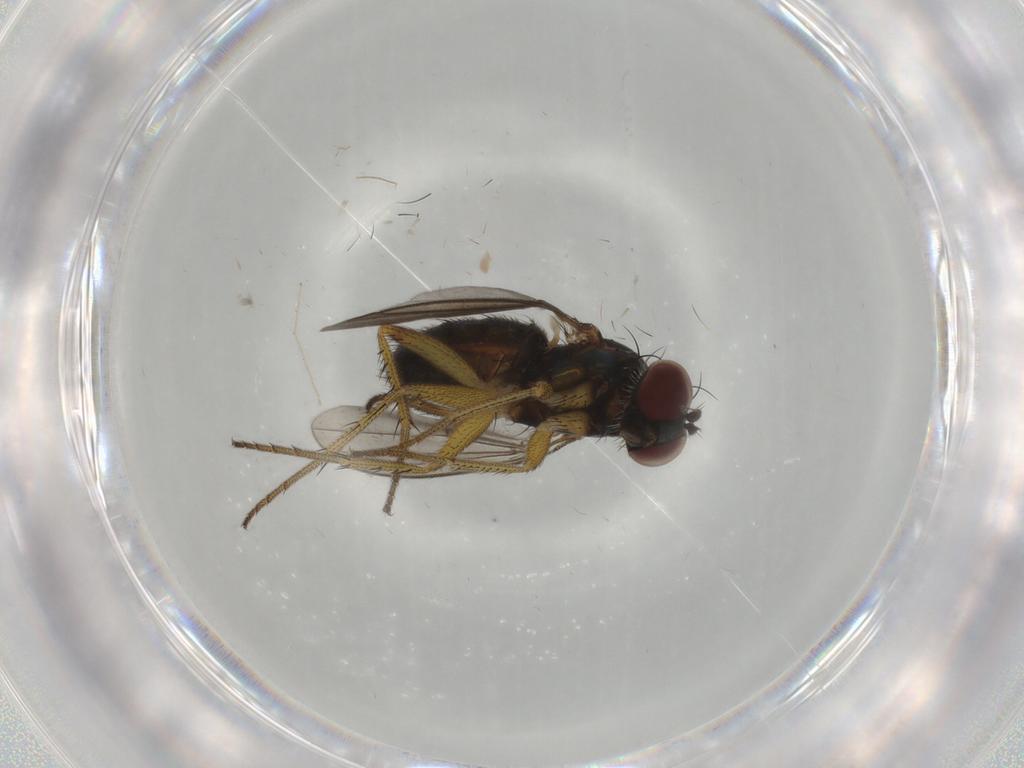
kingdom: Animalia
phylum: Arthropoda
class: Insecta
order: Diptera
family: Dolichopodidae
